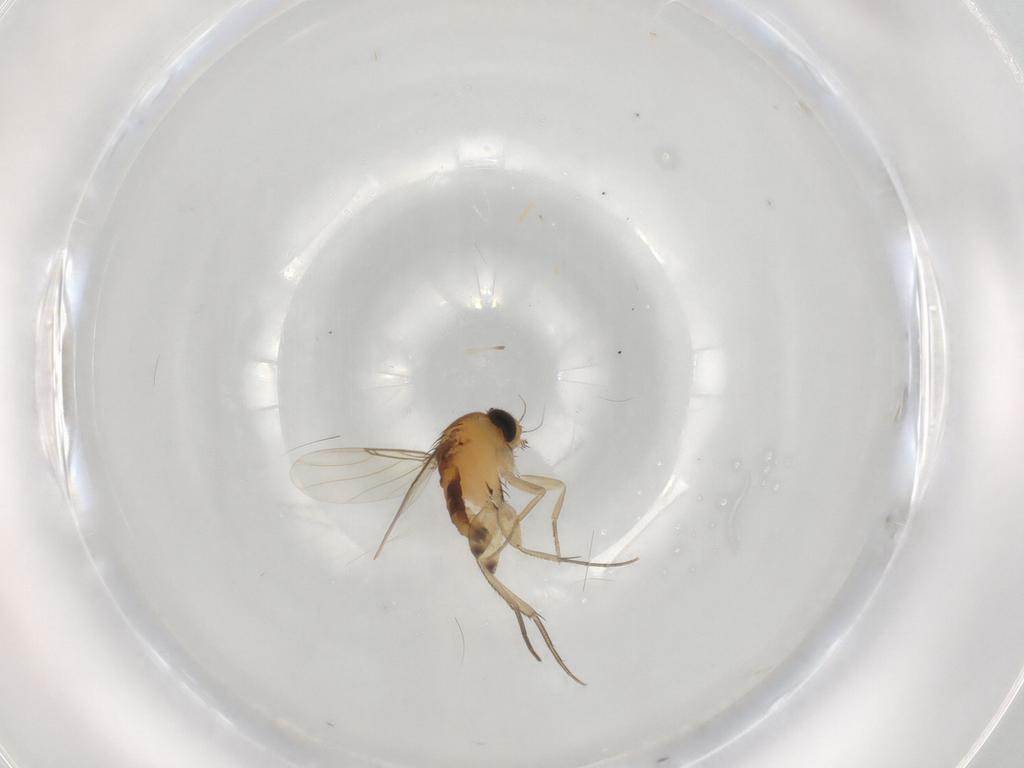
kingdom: Animalia
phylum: Arthropoda
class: Insecta
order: Diptera
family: Phoridae
